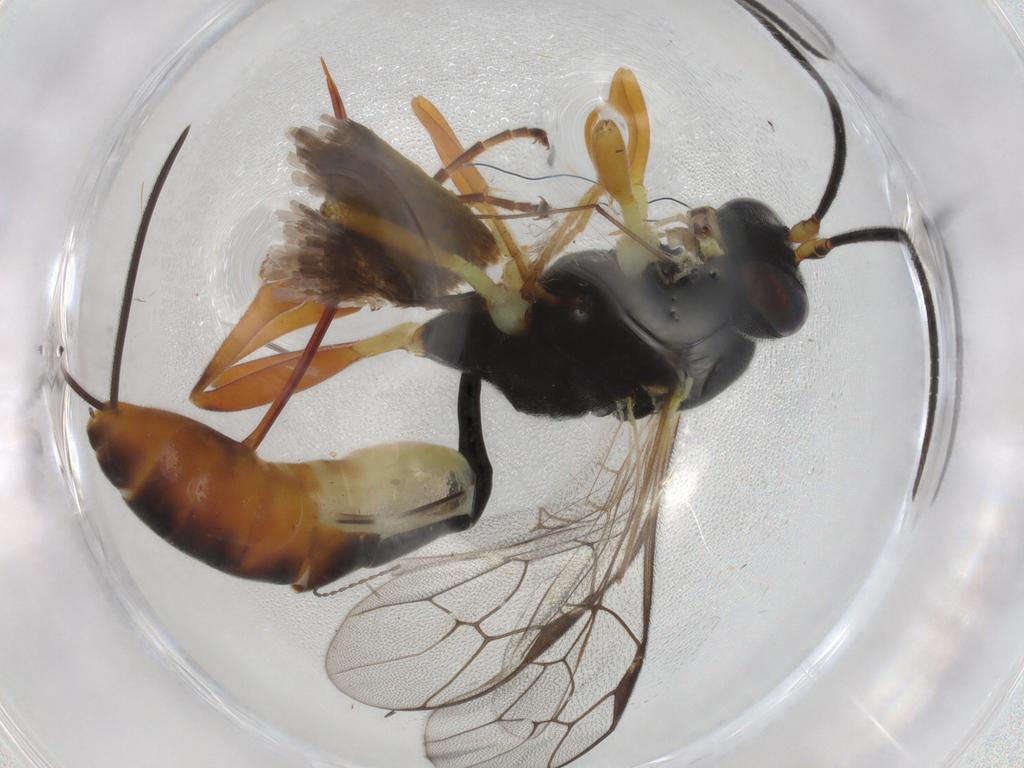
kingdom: Animalia
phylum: Arthropoda
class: Insecta
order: Hymenoptera
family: Ichneumonidae
